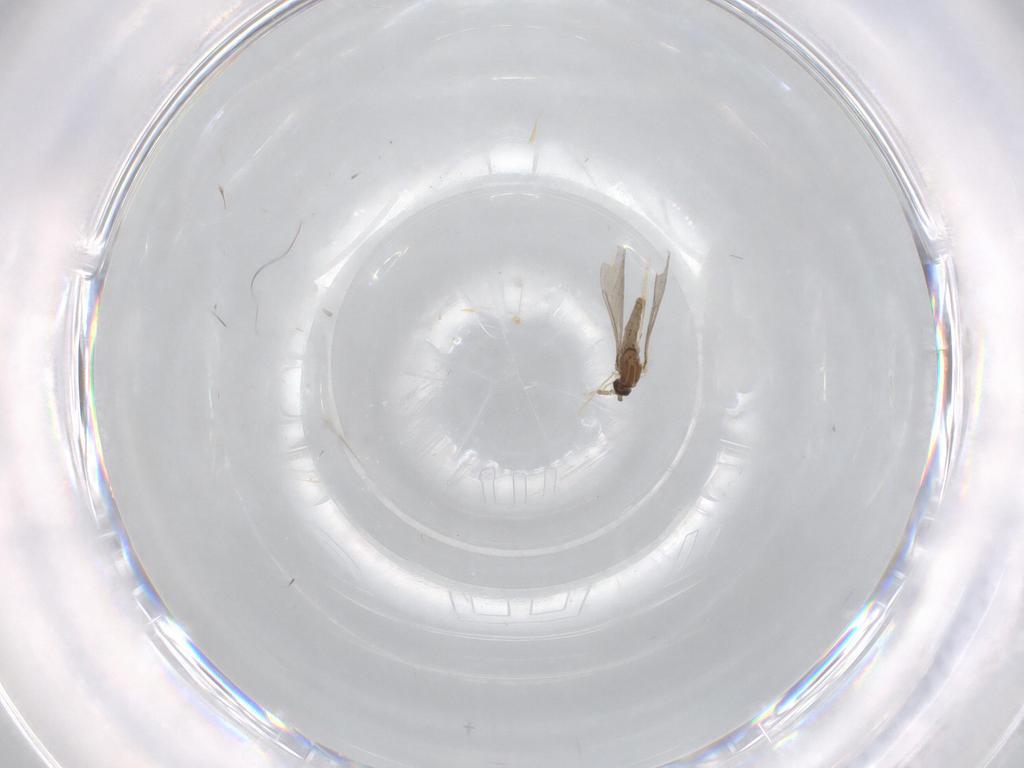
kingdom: Animalia
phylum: Arthropoda
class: Insecta
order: Diptera
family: Cecidomyiidae
